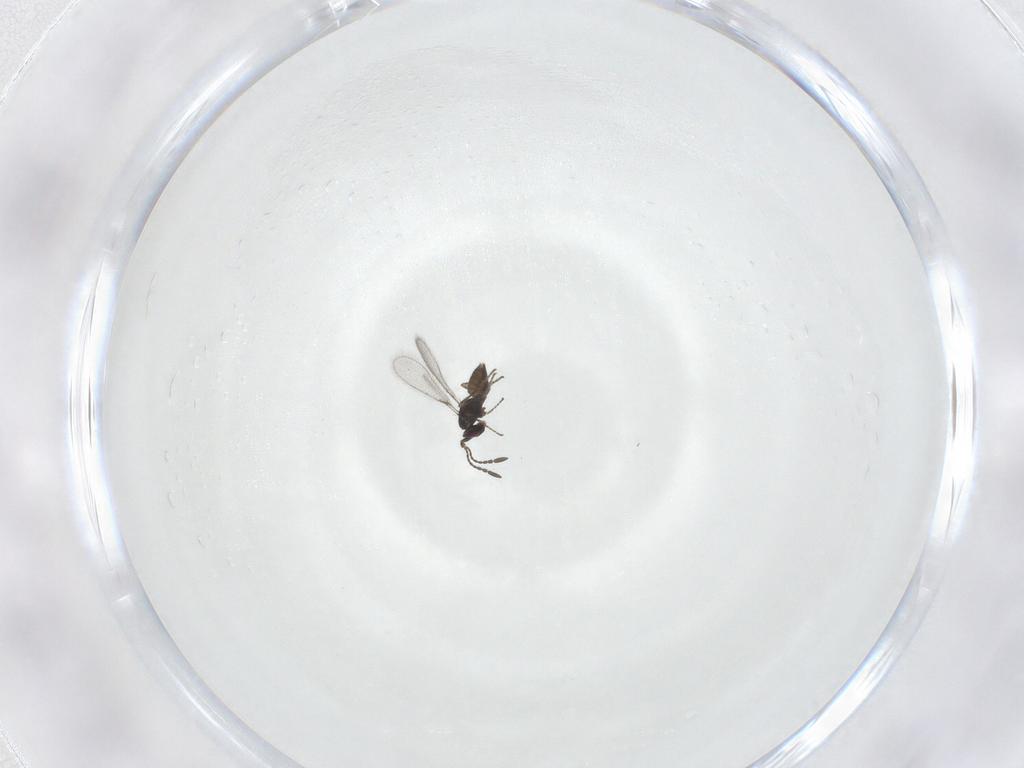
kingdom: Animalia
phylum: Arthropoda
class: Insecta
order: Hymenoptera
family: Mymaridae
